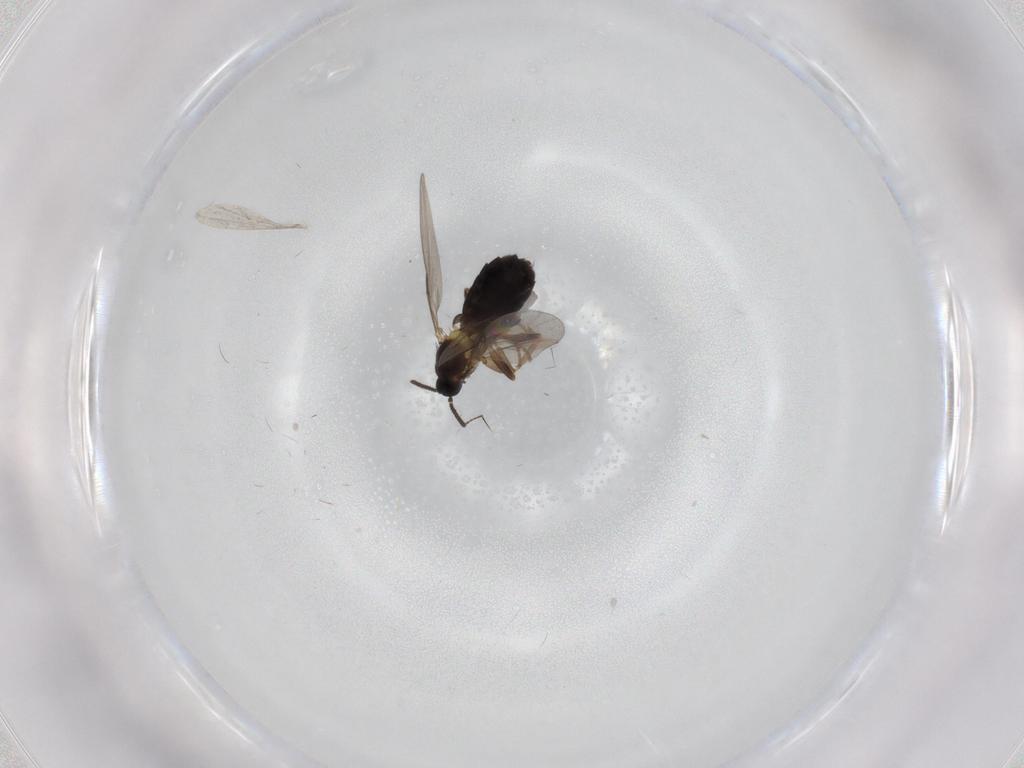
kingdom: Animalia
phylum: Arthropoda
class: Insecta
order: Diptera
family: Scatopsidae
